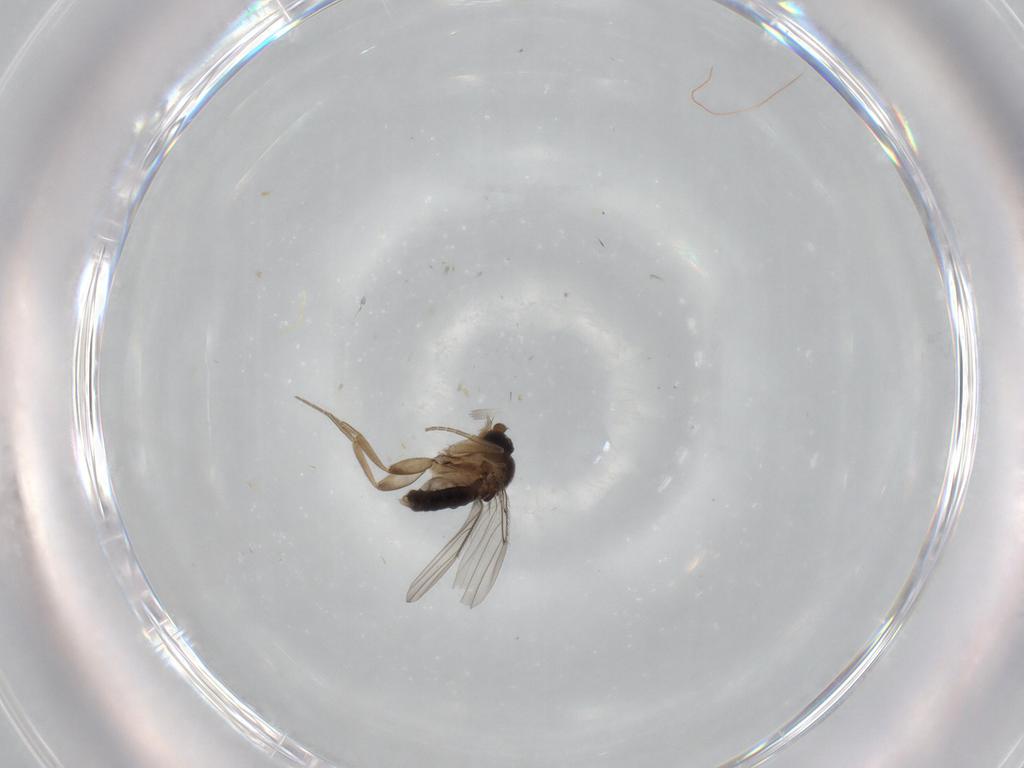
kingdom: Animalia
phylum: Arthropoda
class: Insecta
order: Diptera
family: Phoridae
